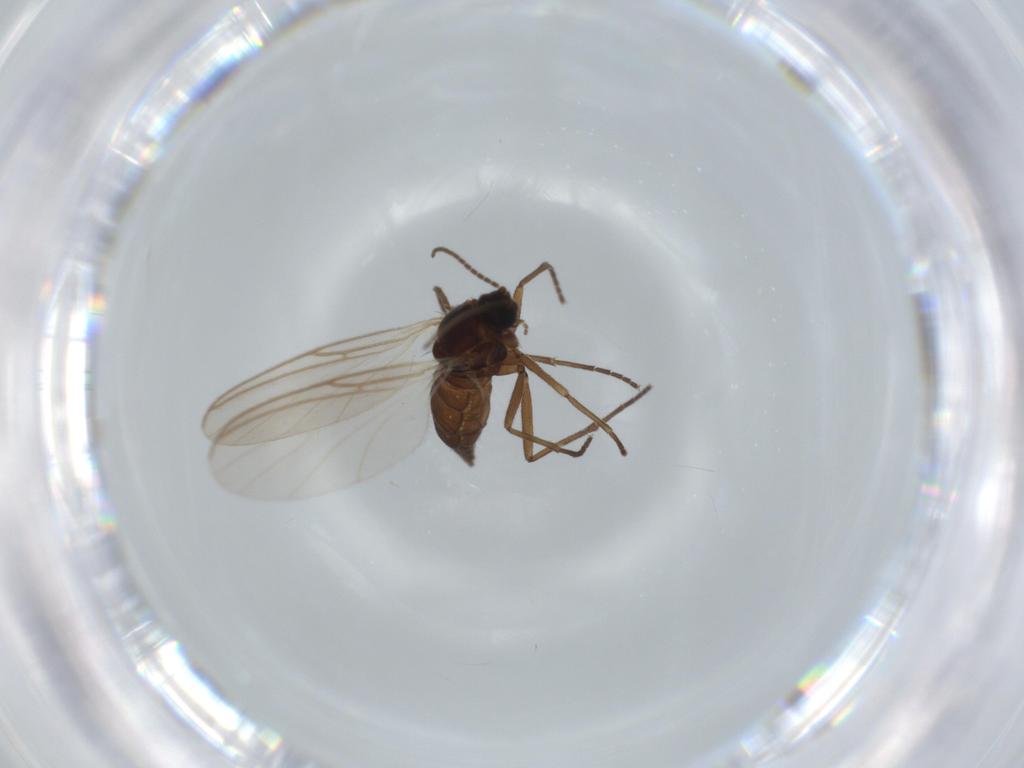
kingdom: Animalia
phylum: Arthropoda
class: Insecta
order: Diptera
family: Sciaridae
